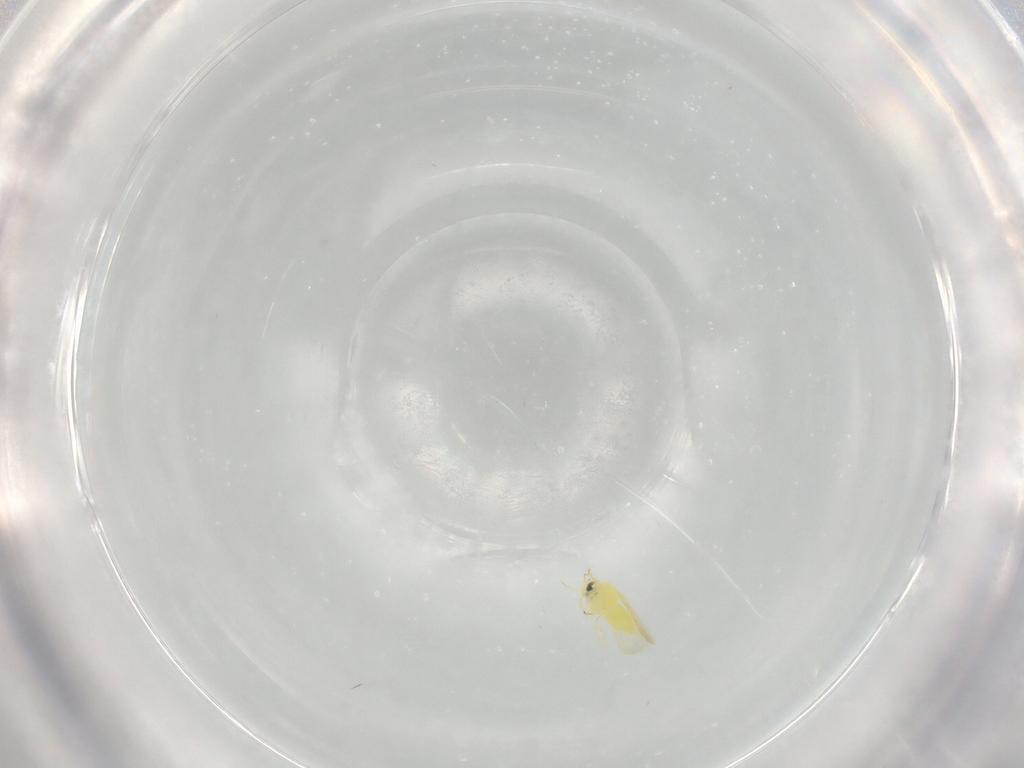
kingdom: Animalia
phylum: Arthropoda
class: Insecta
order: Hemiptera
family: Aleyrodidae
